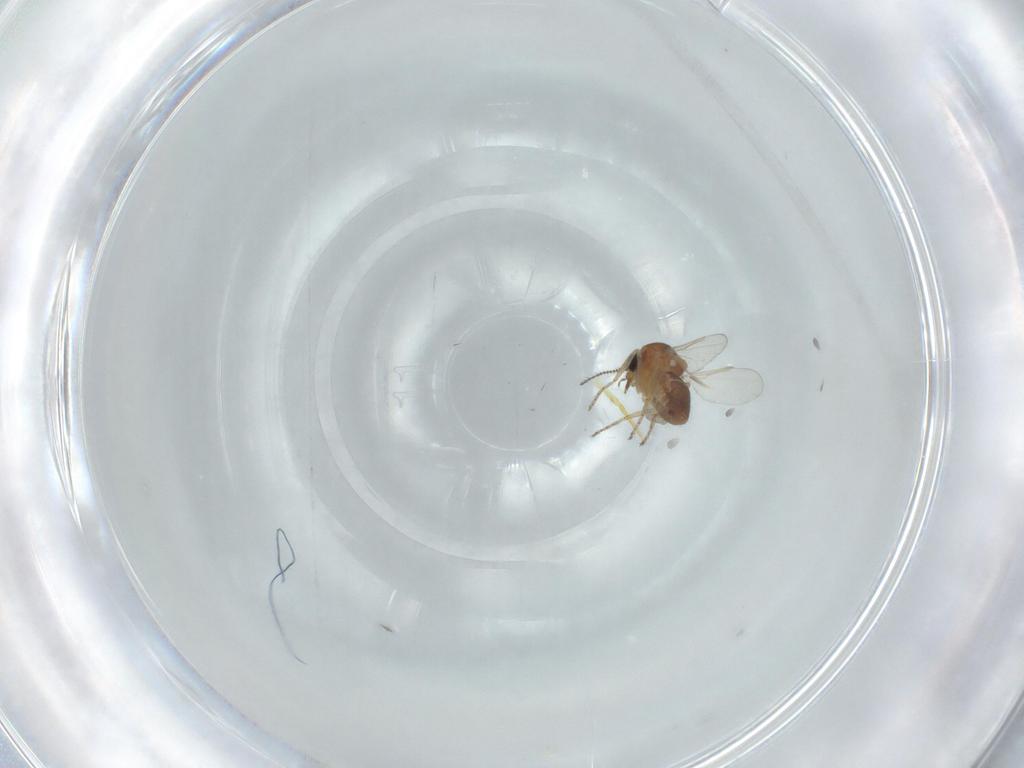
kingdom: Animalia
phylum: Arthropoda
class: Insecta
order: Diptera
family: Ceratopogonidae
